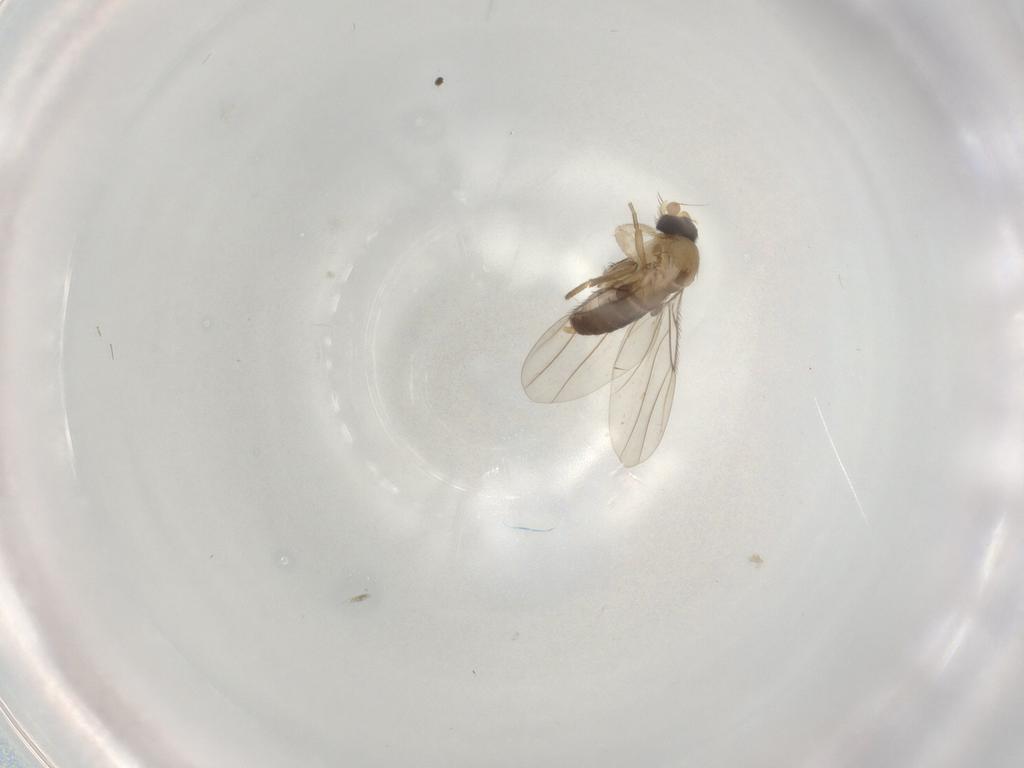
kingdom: Animalia
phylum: Arthropoda
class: Insecta
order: Diptera
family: Phoridae
